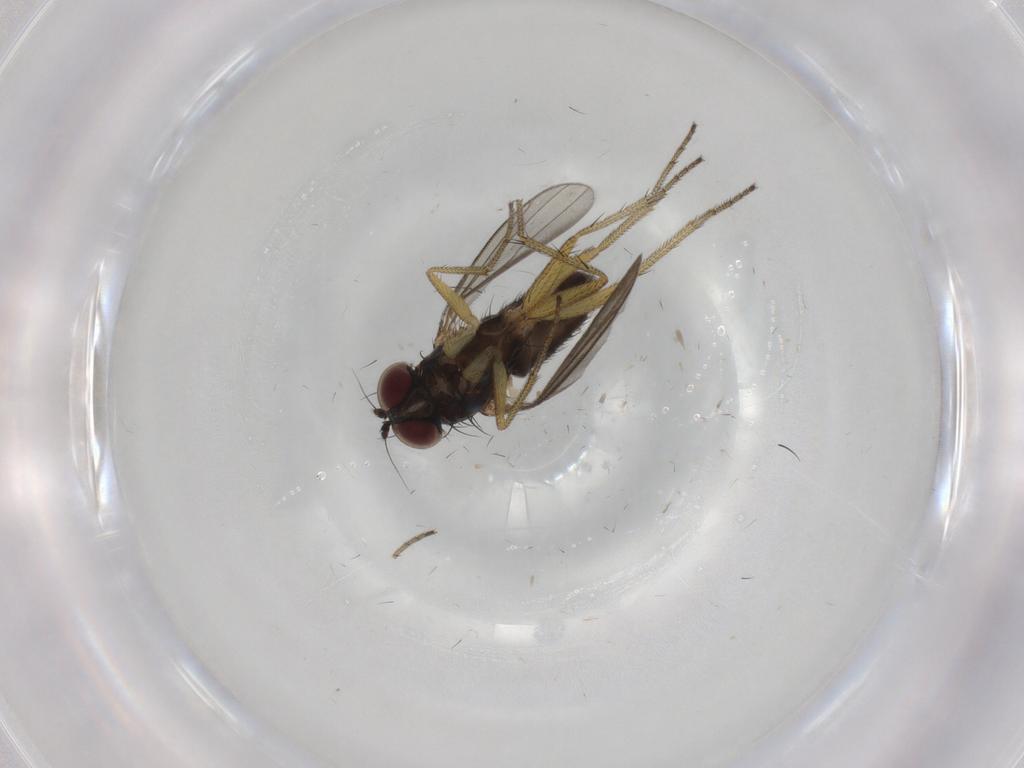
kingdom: Animalia
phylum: Arthropoda
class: Insecta
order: Diptera
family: Dolichopodidae
